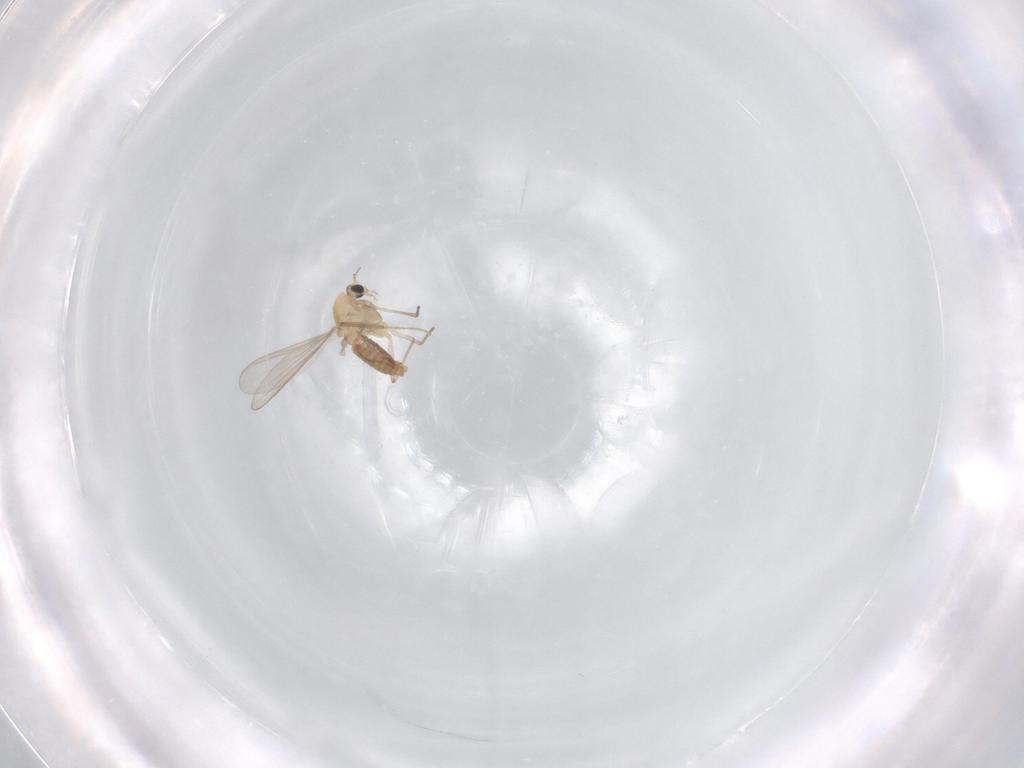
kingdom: Animalia
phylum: Arthropoda
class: Insecta
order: Diptera
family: Chironomidae
